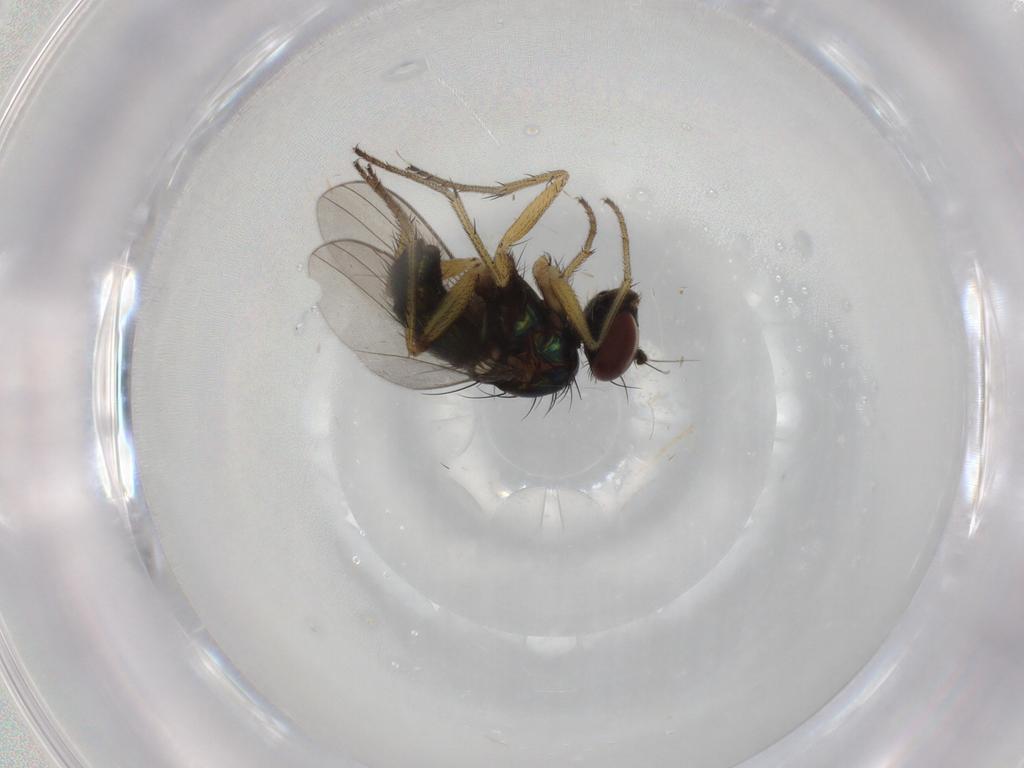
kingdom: Animalia
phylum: Arthropoda
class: Insecta
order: Diptera
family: Dolichopodidae
